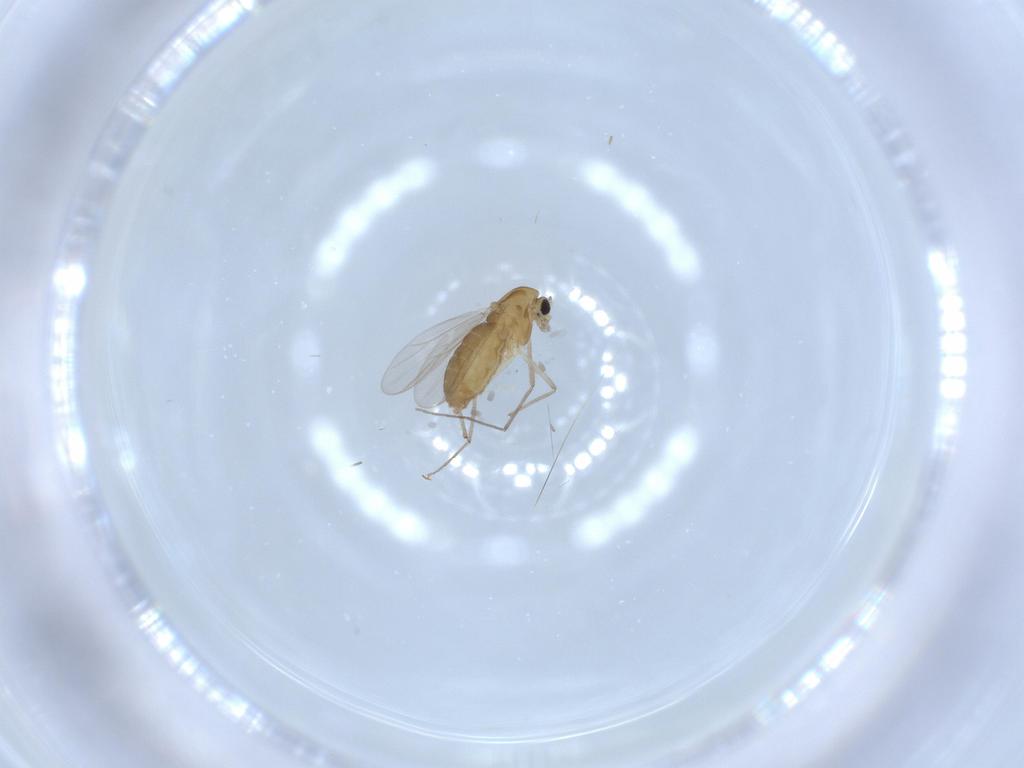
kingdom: Animalia
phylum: Arthropoda
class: Insecta
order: Diptera
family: Chironomidae
